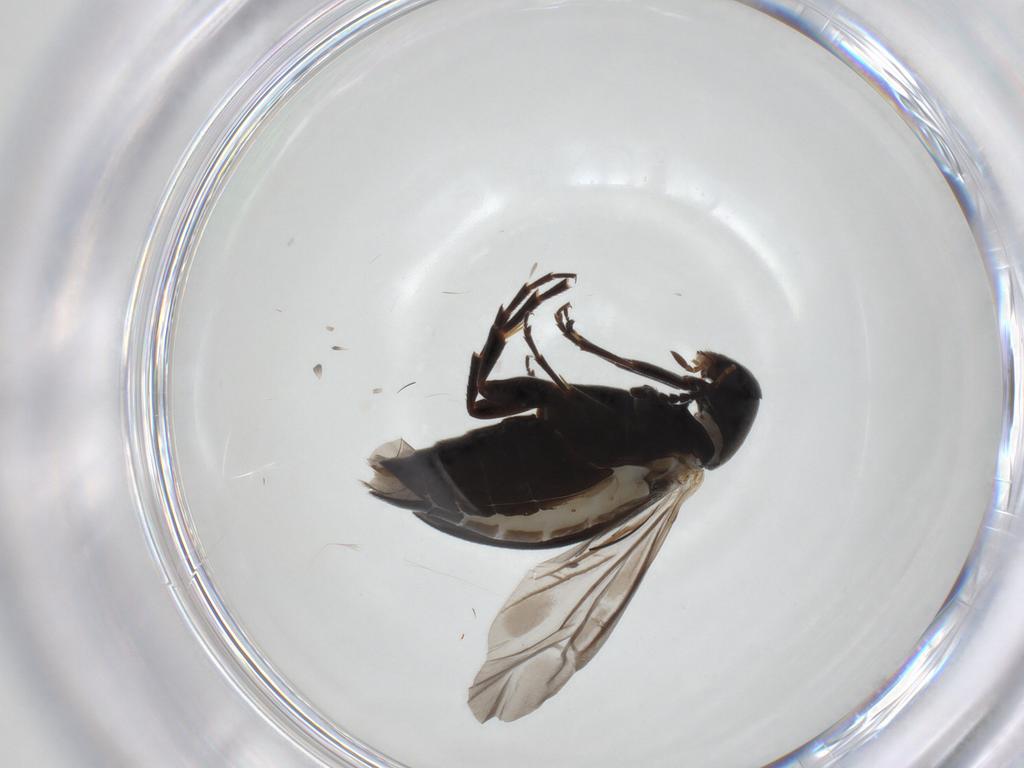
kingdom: Animalia
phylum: Arthropoda
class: Insecta
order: Coleoptera
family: Scraptiidae
